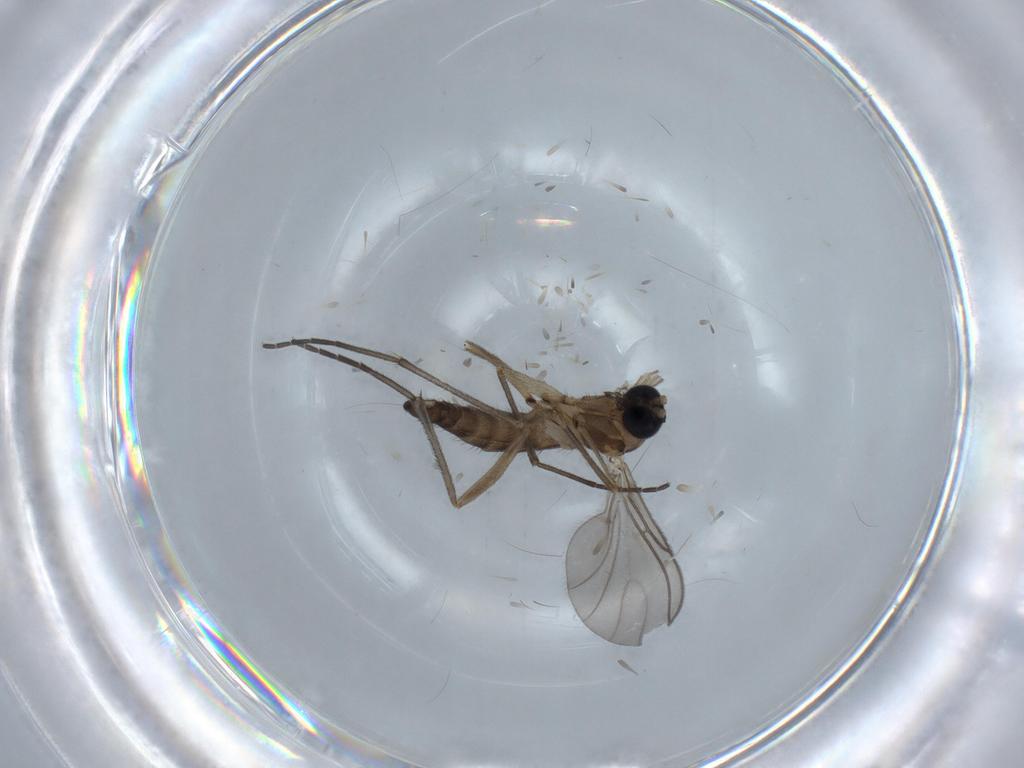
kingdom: Animalia
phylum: Arthropoda
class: Insecta
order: Diptera
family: Sciaridae
